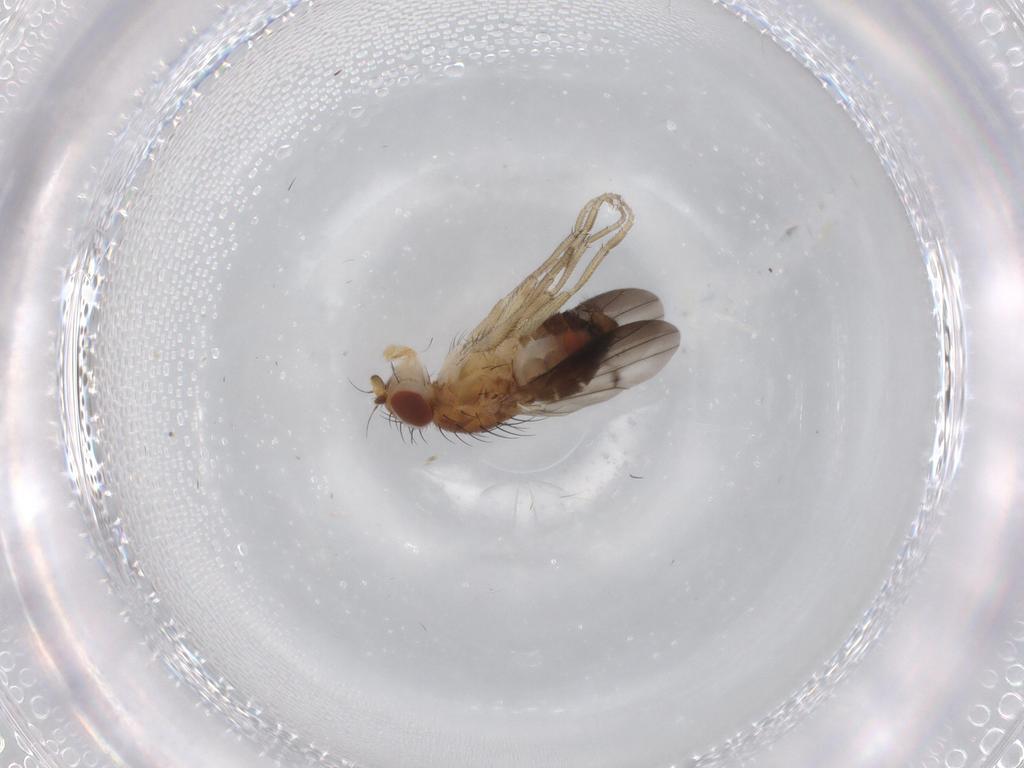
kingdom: Animalia
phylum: Arthropoda
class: Insecta
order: Diptera
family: Heleomyzidae
